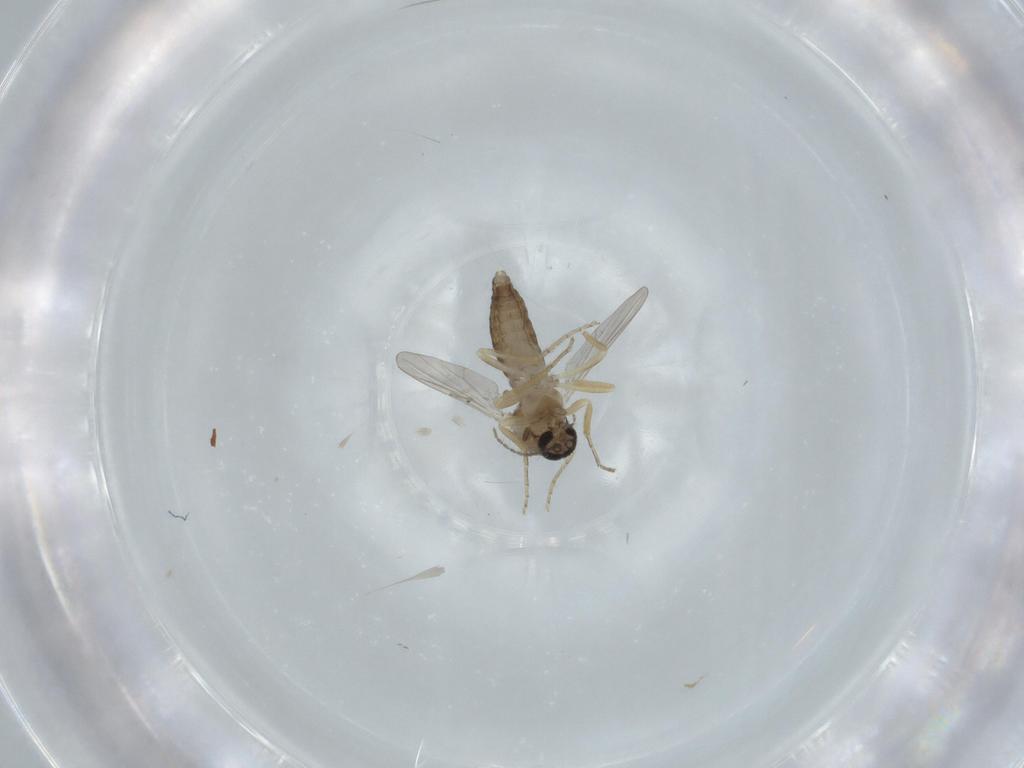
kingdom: Animalia
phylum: Arthropoda
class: Insecta
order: Diptera
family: Ceratopogonidae
